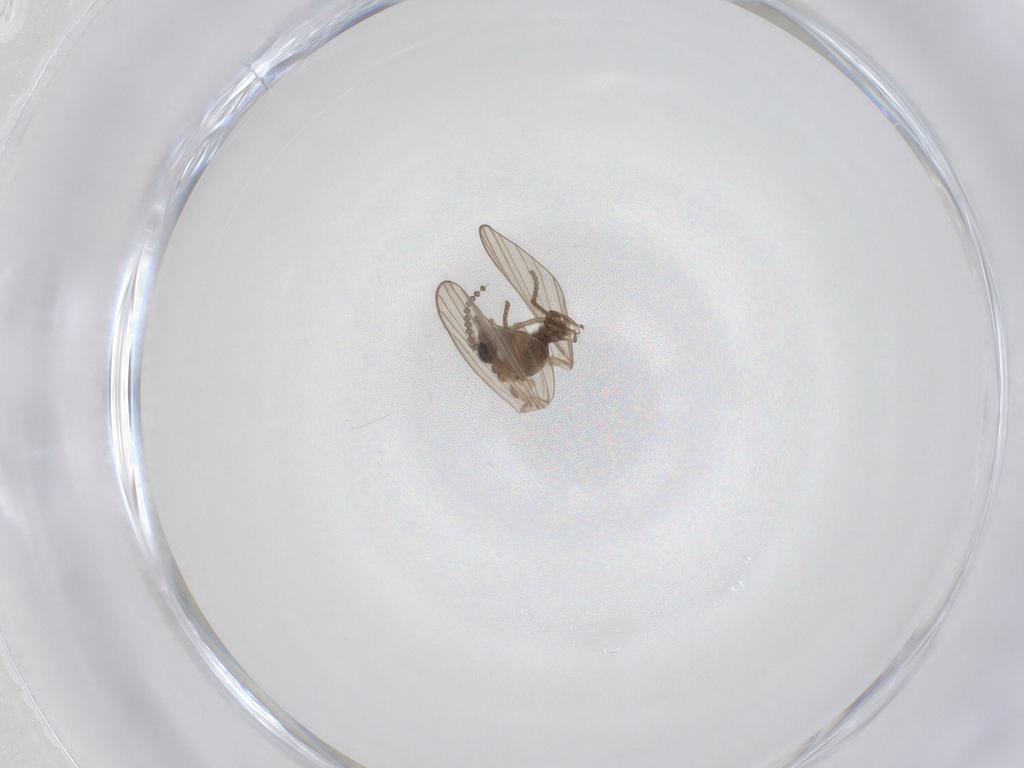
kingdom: Animalia
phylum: Arthropoda
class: Insecta
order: Diptera
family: Psychodidae
